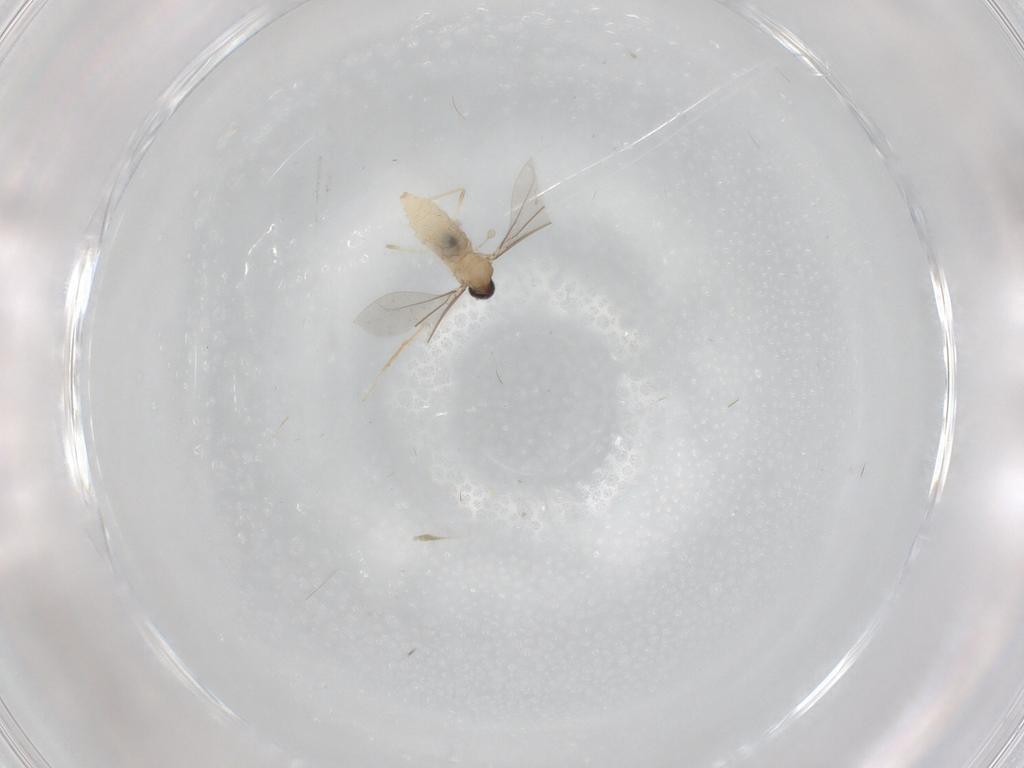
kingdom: Animalia
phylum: Arthropoda
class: Insecta
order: Diptera
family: Cecidomyiidae
